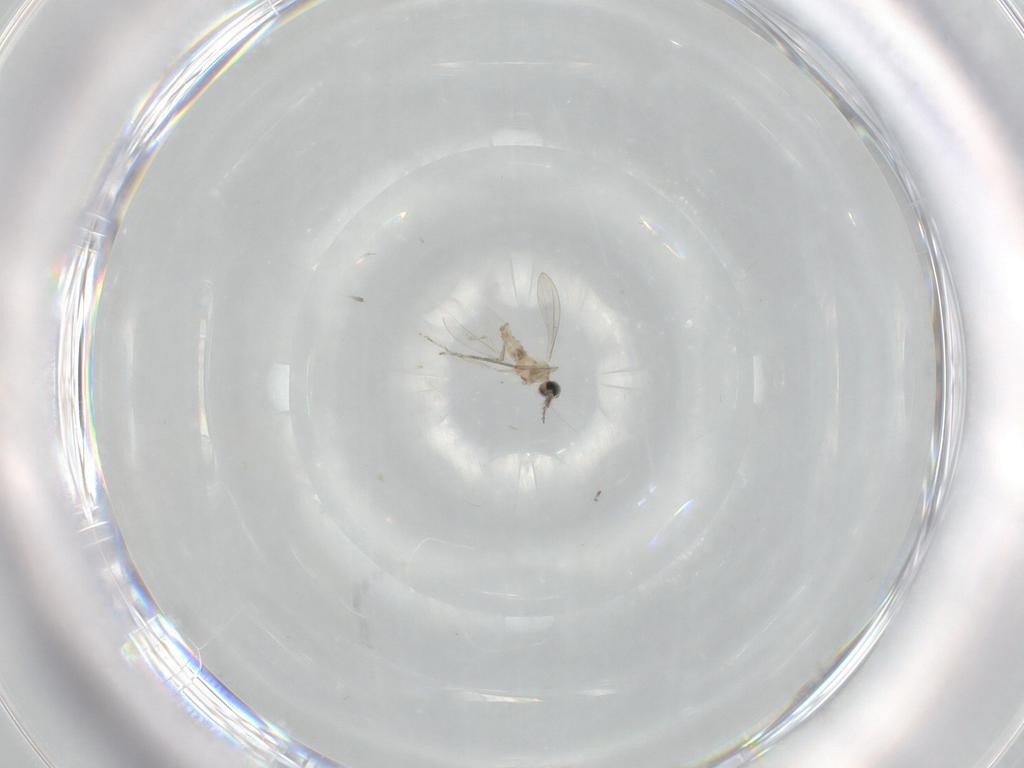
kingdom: Animalia
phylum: Arthropoda
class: Insecta
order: Diptera
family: Cecidomyiidae
